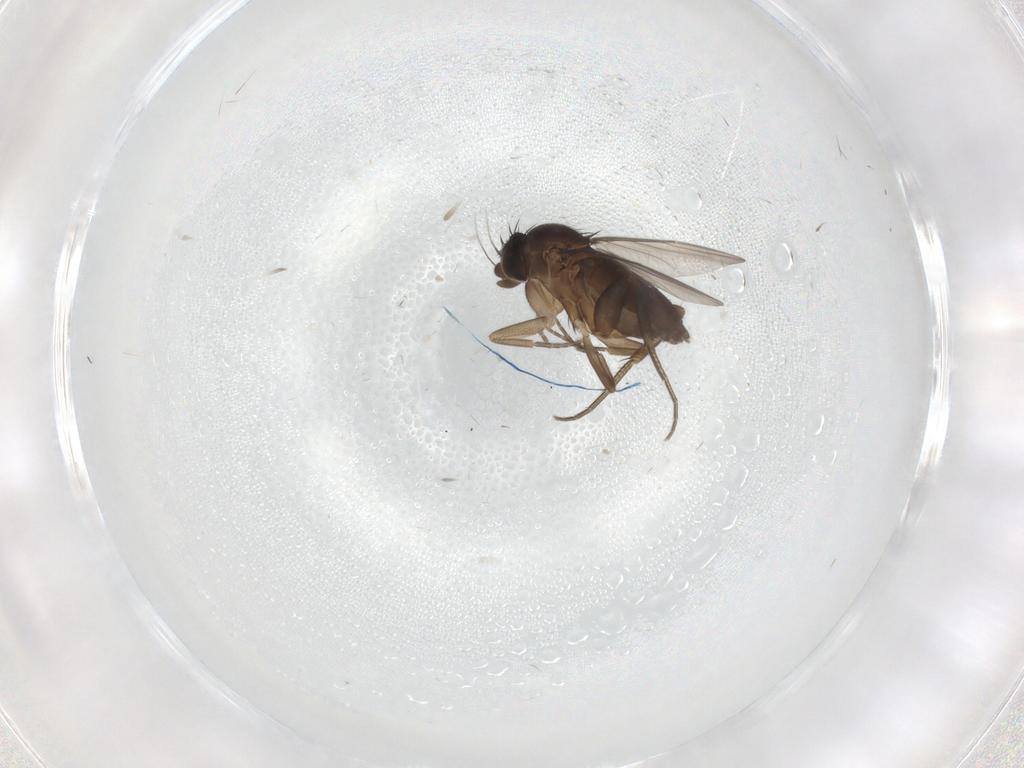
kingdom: Animalia
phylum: Arthropoda
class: Insecta
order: Diptera
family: Phoridae
